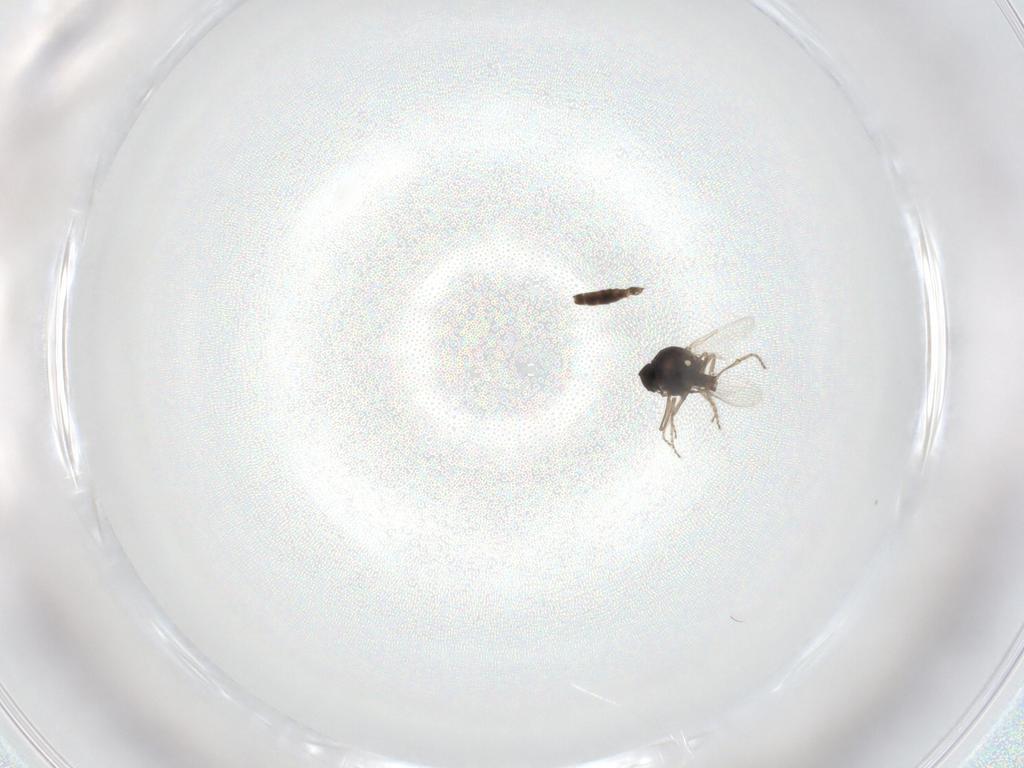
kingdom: Animalia
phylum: Arthropoda
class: Insecta
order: Diptera
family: Ceratopogonidae
